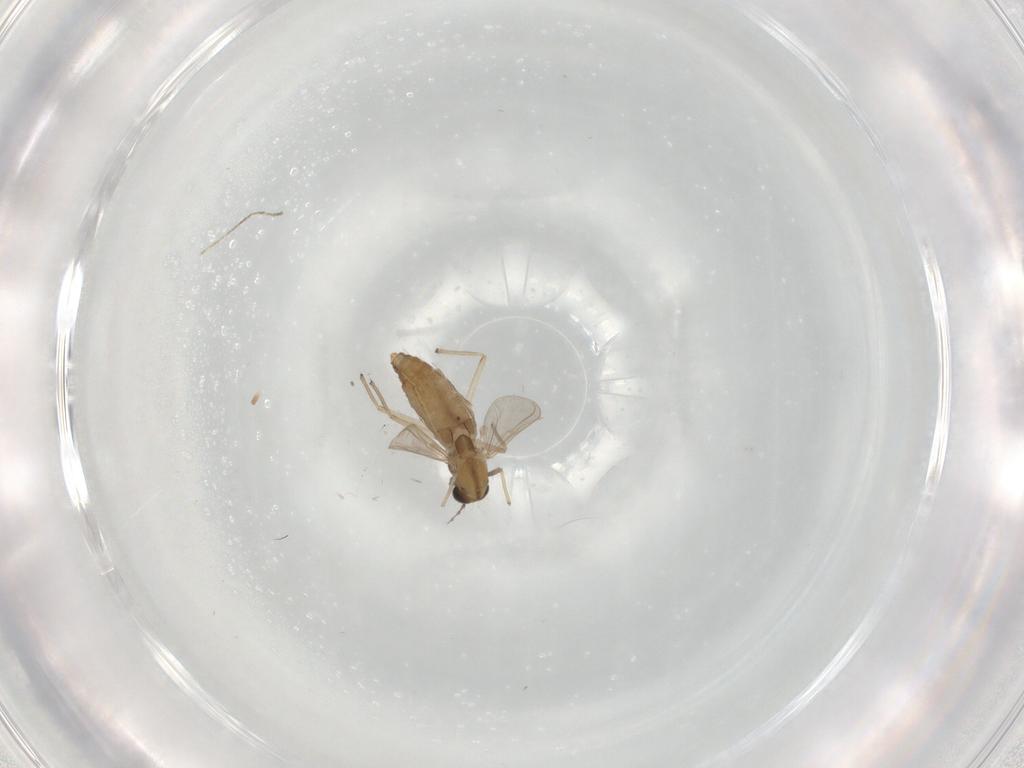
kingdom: Animalia
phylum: Arthropoda
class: Insecta
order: Diptera
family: Chironomidae
